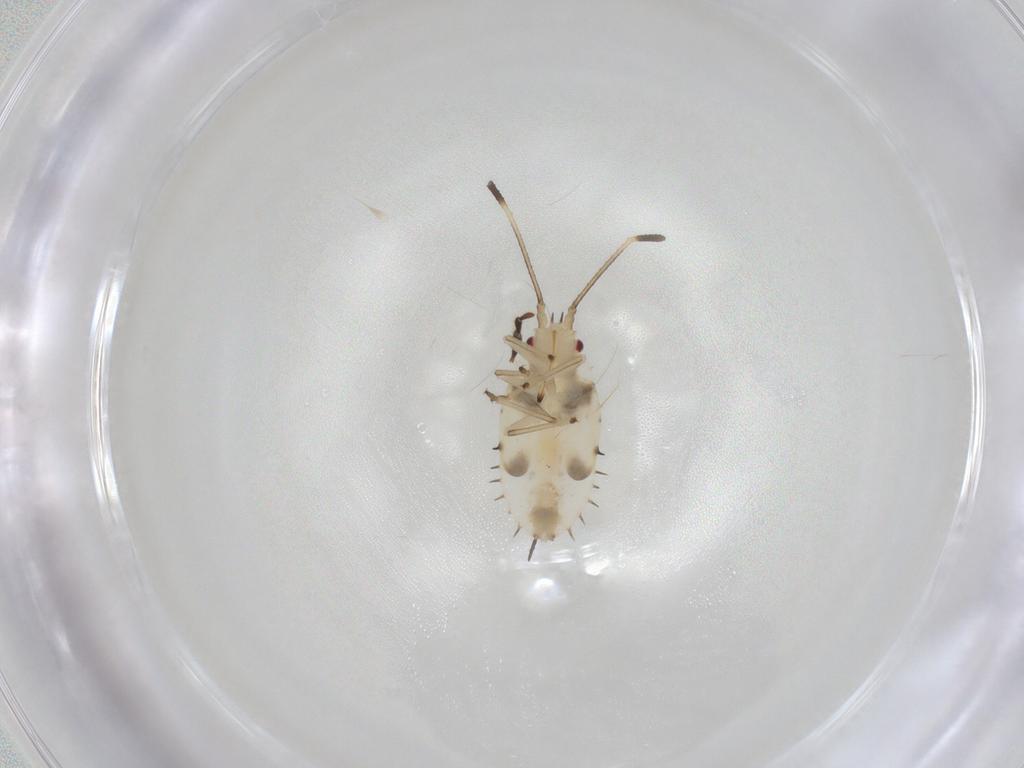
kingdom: Animalia
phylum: Arthropoda
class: Insecta
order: Hemiptera
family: Tingidae
